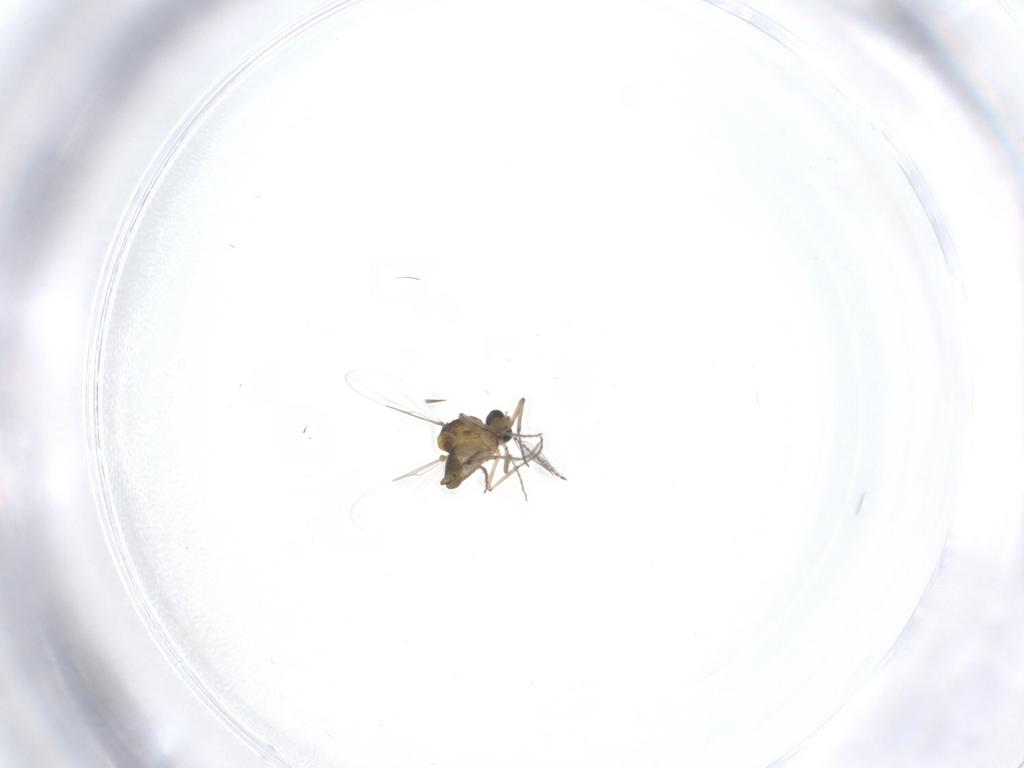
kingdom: Animalia
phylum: Arthropoda
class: Insecta
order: Diptera
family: Ceratopogonidae
